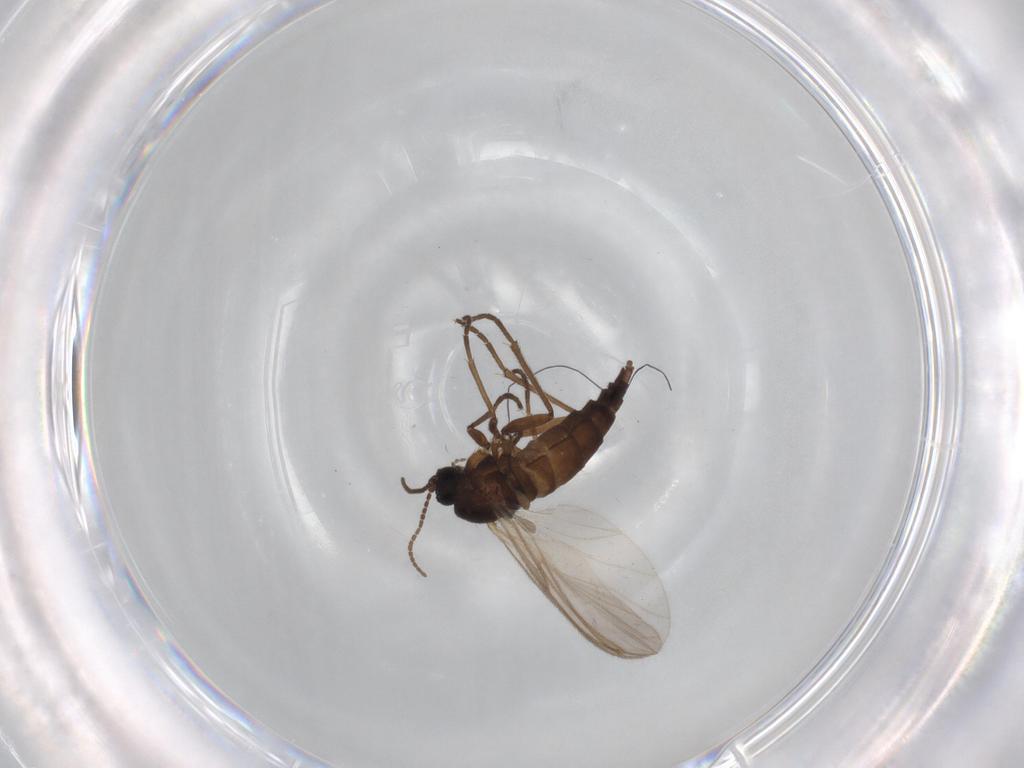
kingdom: Animalia
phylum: Arthropoda
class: Insecta
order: Diptera
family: Sciaridae
